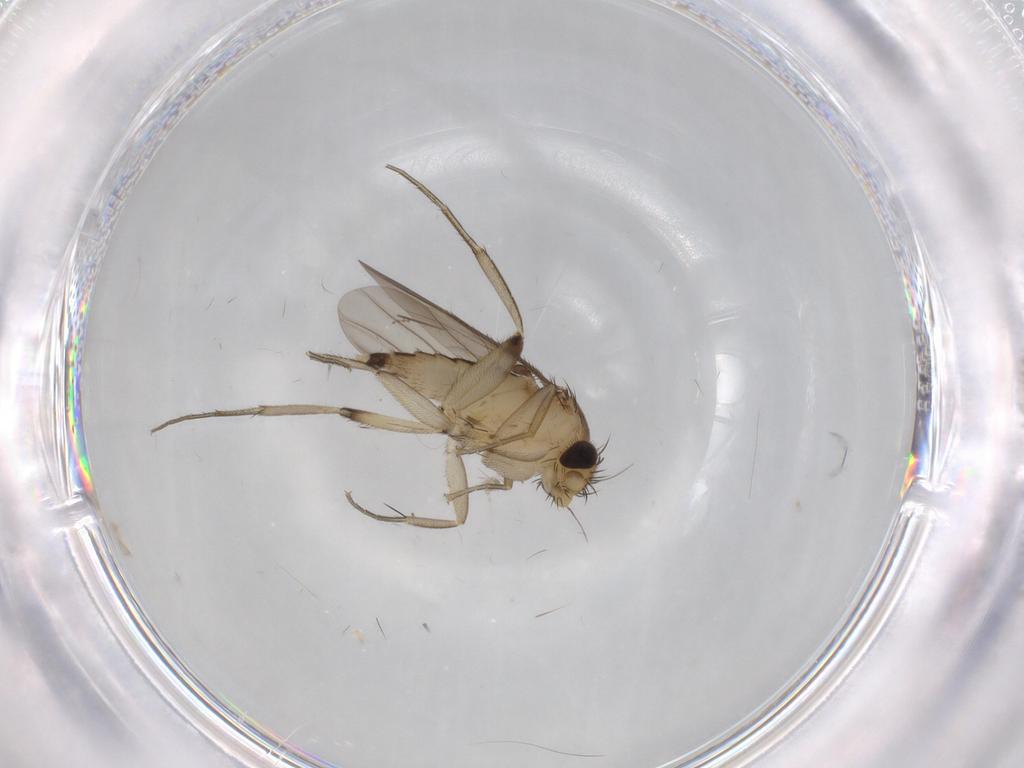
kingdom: Animalia
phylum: Arthropoda
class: Insecta
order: Diptera
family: Phoridae
